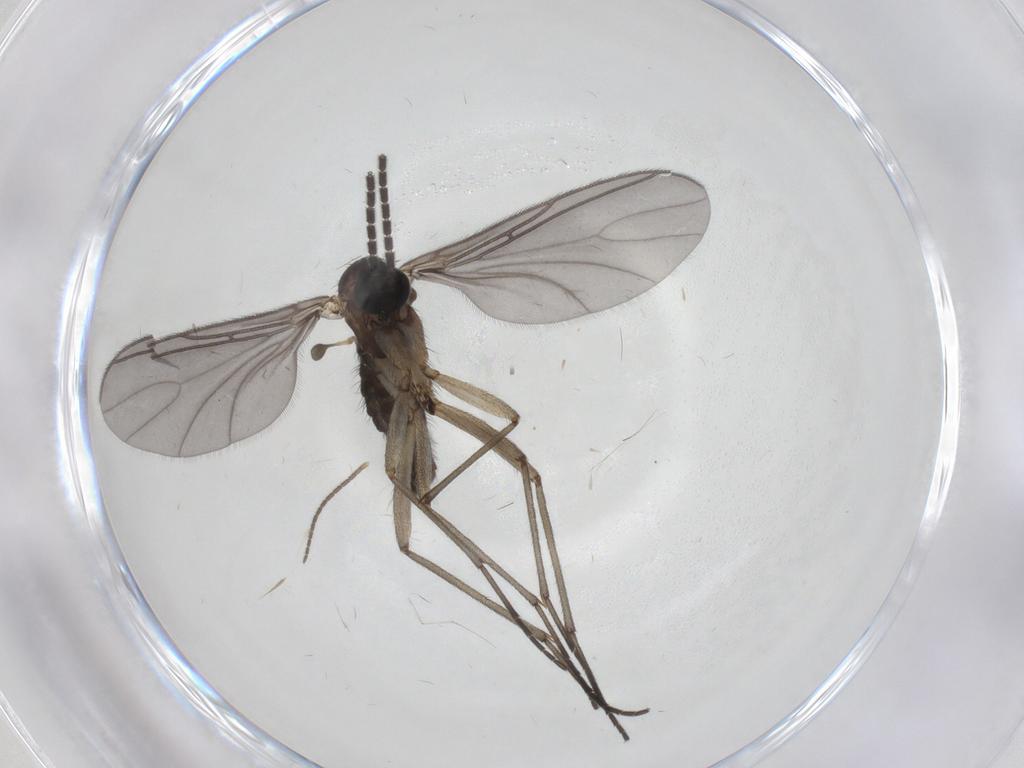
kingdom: Animalia
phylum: Arthropoda
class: Insecta
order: Diptera
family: Sciaridae
